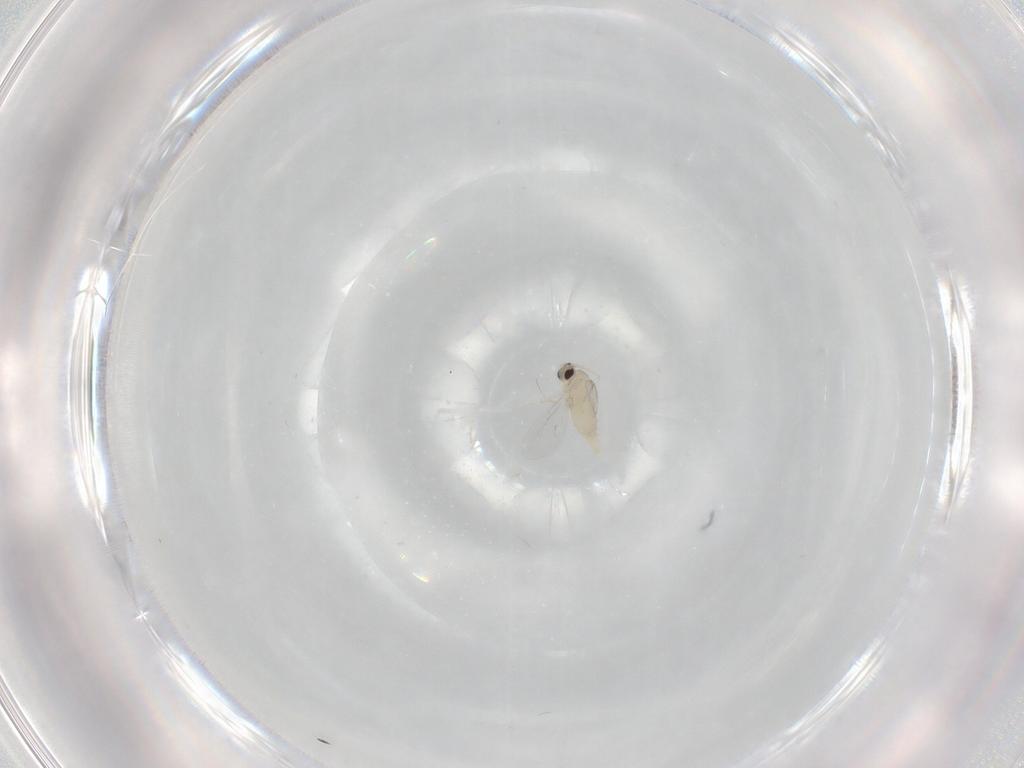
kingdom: Animalia
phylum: Arthropoda
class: Insecta
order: Diptera
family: Cecidomyiidae
